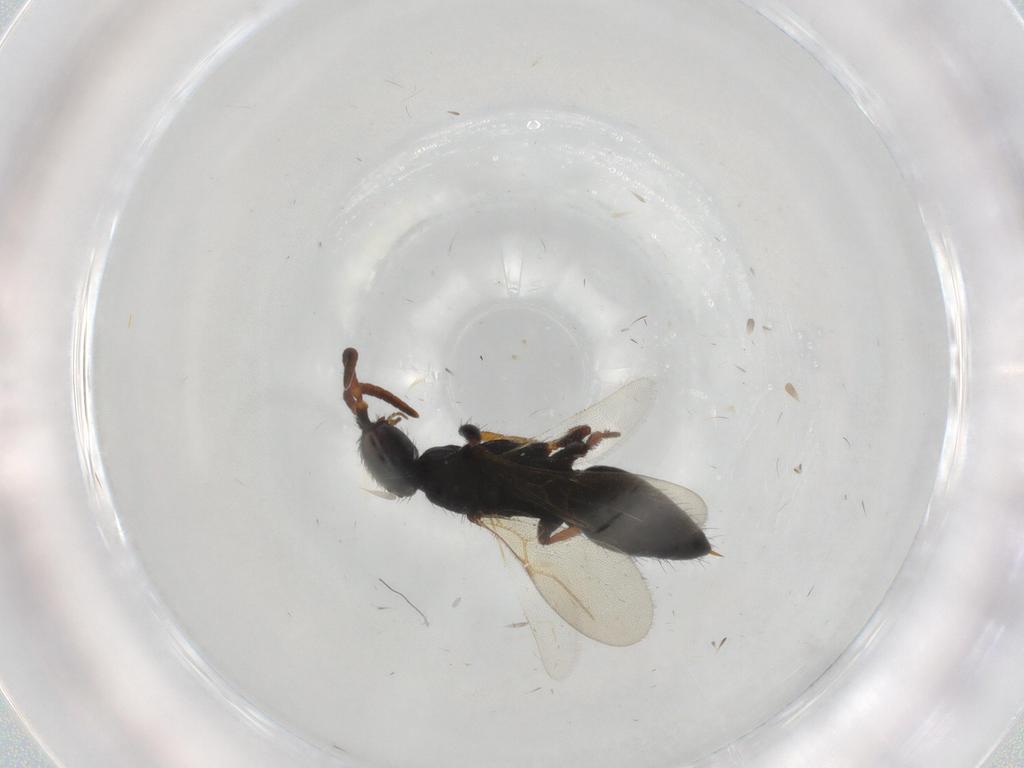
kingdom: Animalia
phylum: Arthropoda
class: Insecta
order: Hymenoptera
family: Bethylidae
